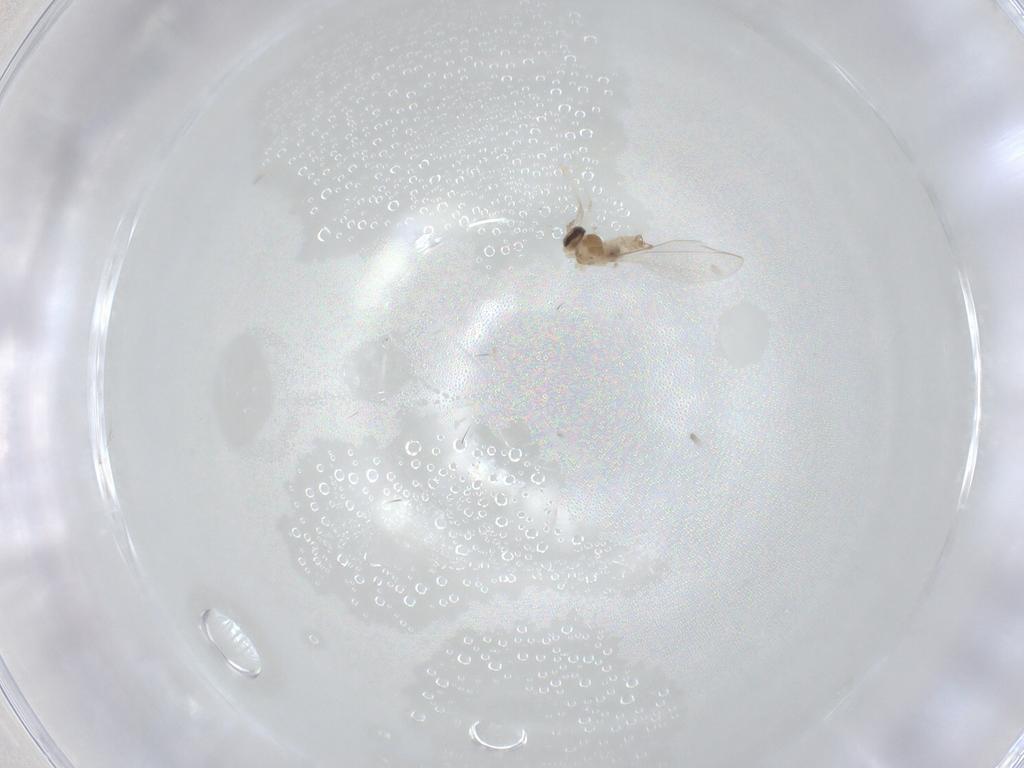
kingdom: Animalia
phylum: Arthropoda
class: Insecta
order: Diptera
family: Cecidomyiidae
